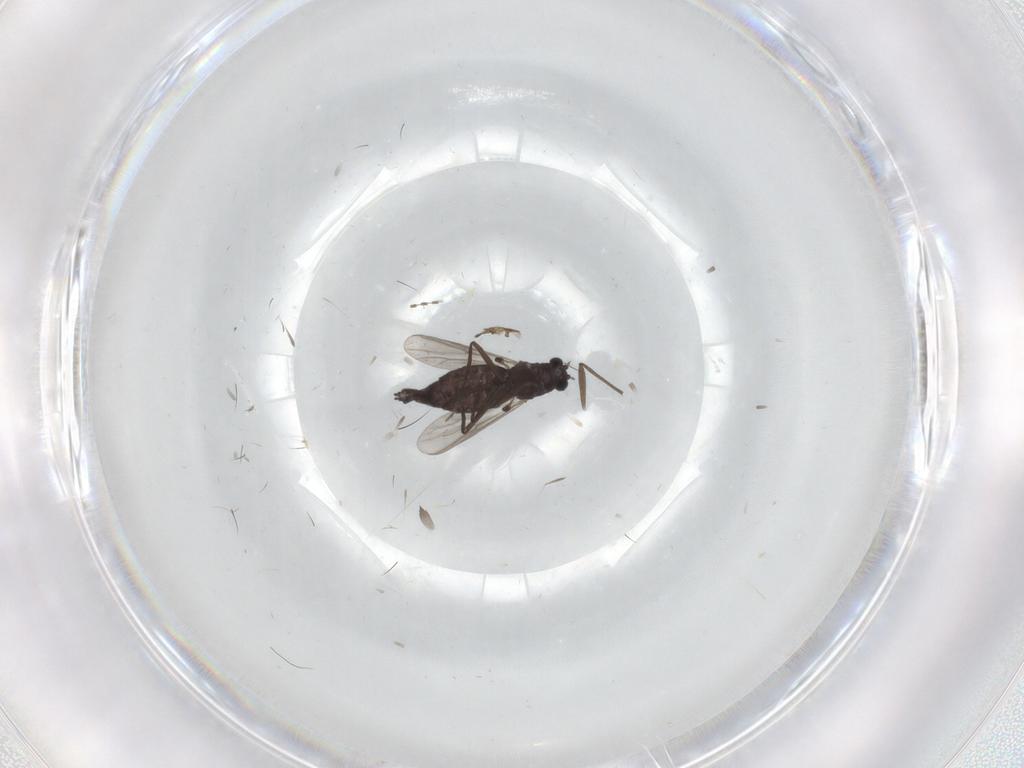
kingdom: Animalia
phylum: Arthropoda
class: Insecta
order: Diptera
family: Chironomidae
